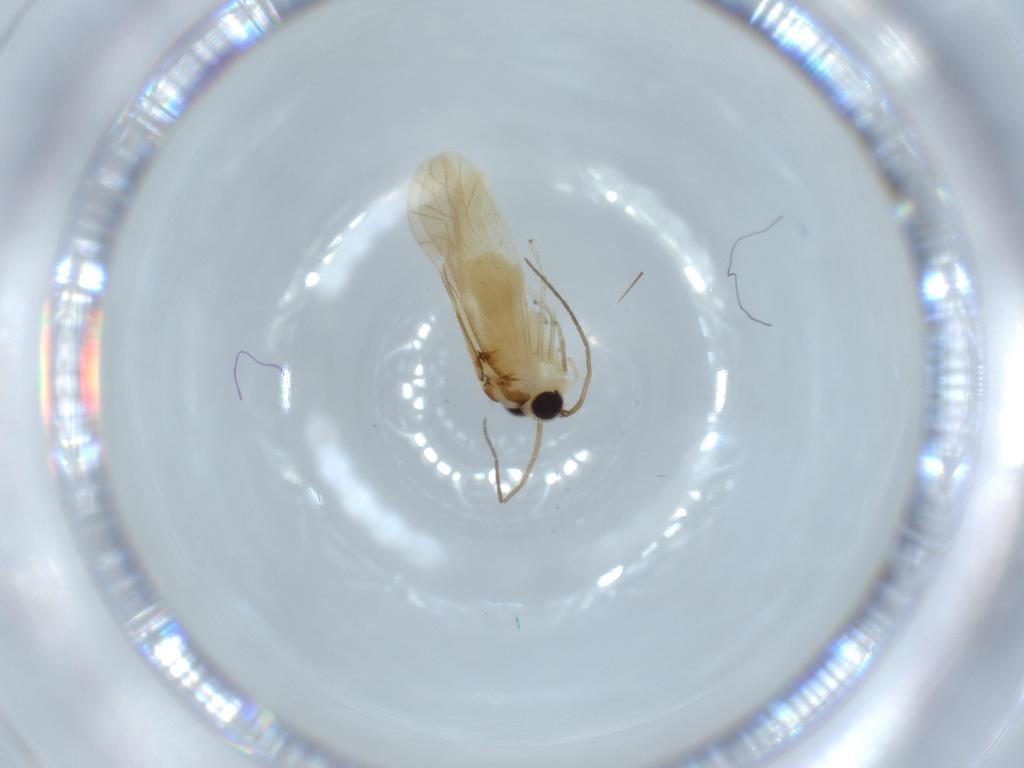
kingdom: Animalia
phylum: Arthropoda
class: Insecta
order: Psocodea
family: Caeciliusidae
